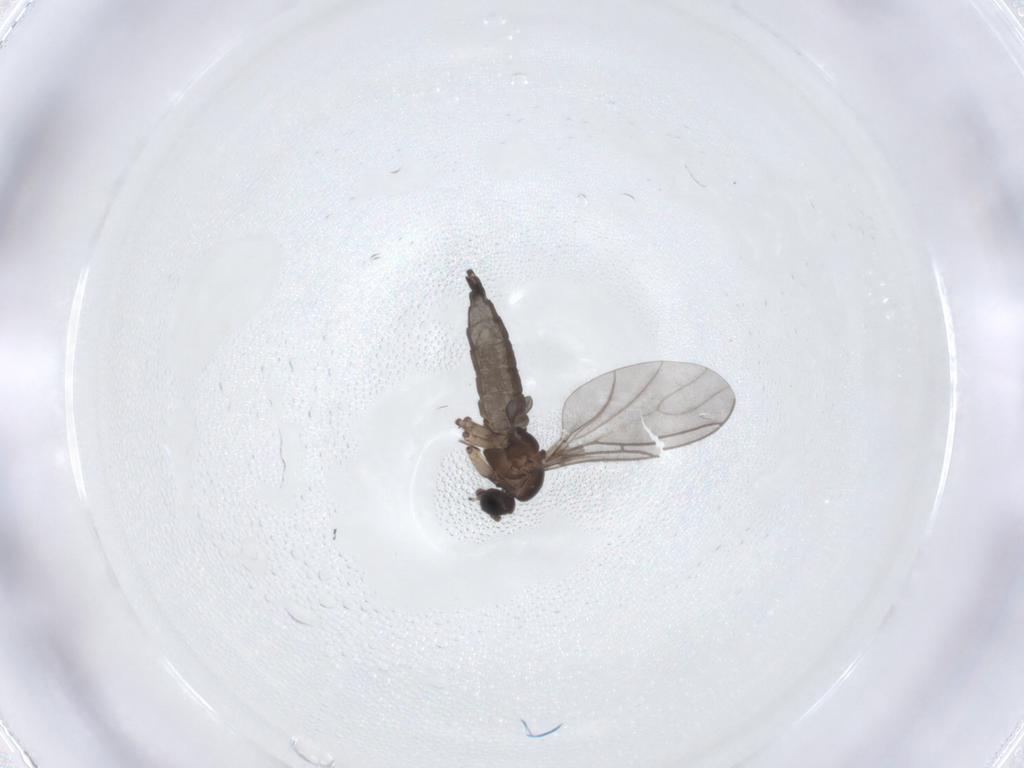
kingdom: Animalia
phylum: Arthropoda
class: Insecta
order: Diptera
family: Sciaridae
